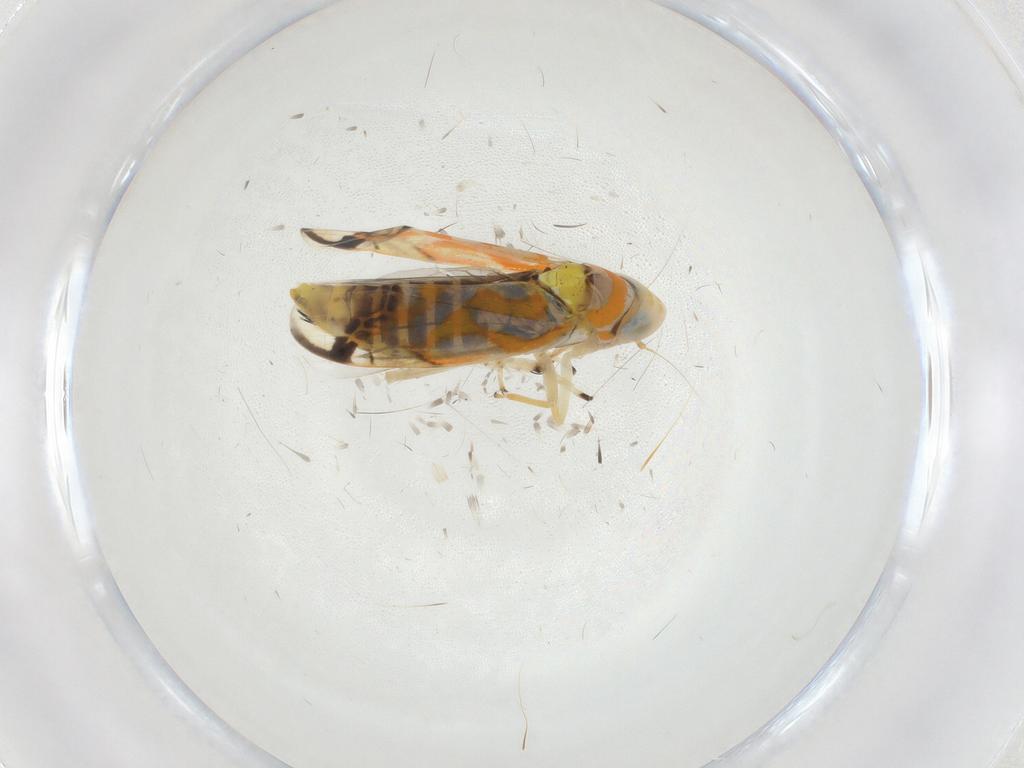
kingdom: Animalia
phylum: Arthropoda
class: Insecta
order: Hemiptera
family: Cicadellidae
